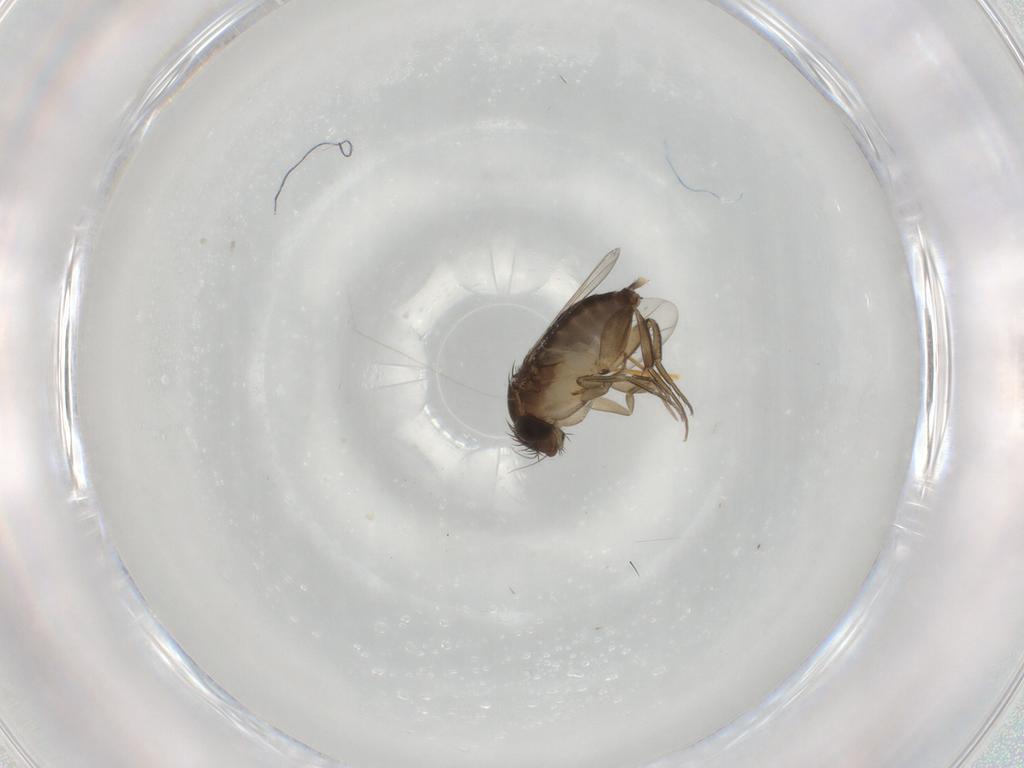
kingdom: Animalia
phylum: Arthropoda
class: Insecta
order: Diptera
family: Phoridae
